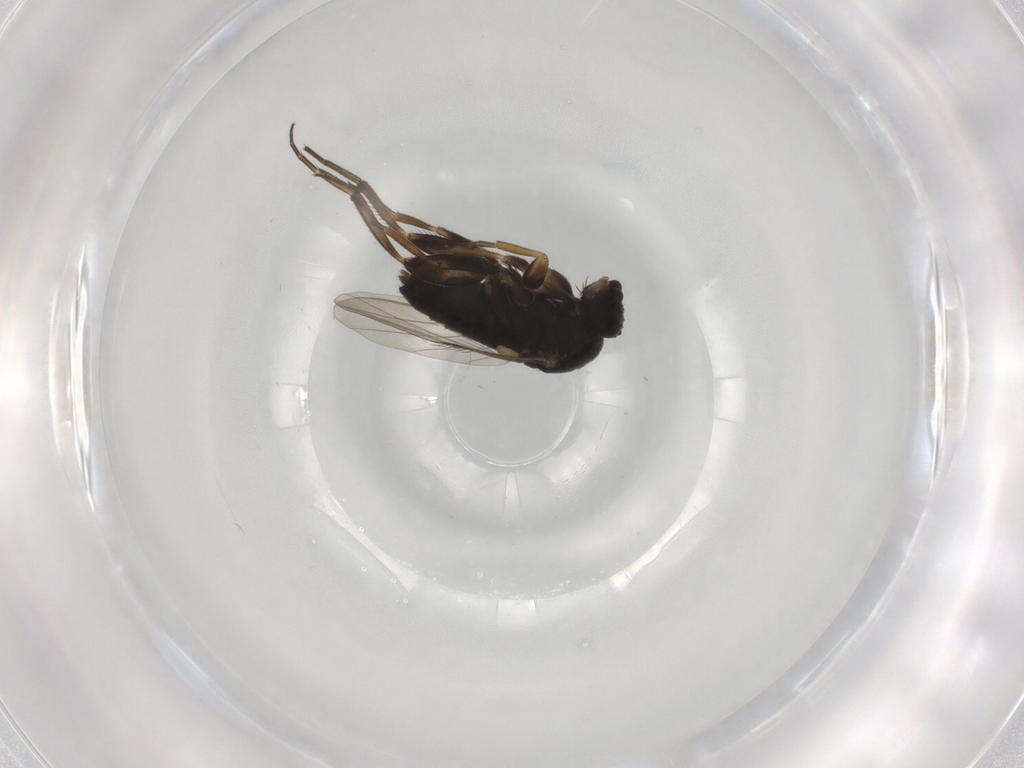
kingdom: Animalia
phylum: Arthropoda
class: Insecta
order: Diptera
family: Phoridae
